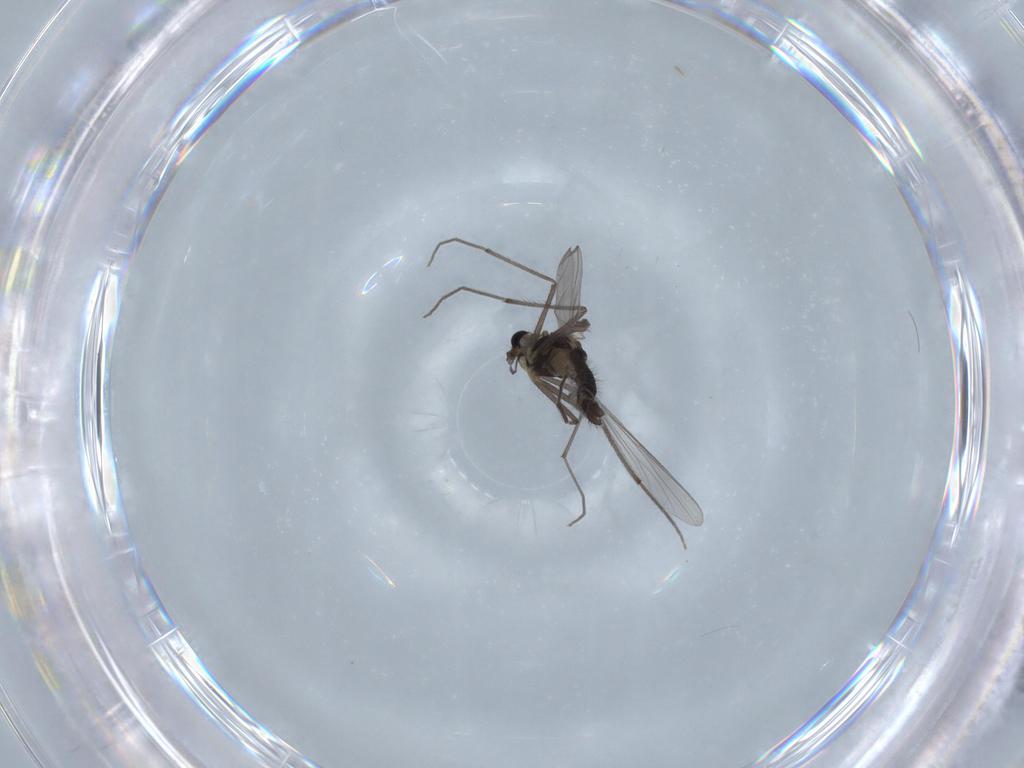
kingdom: Animalia
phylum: Arthropoda
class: Insecta
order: Diptera
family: Chironomidae
